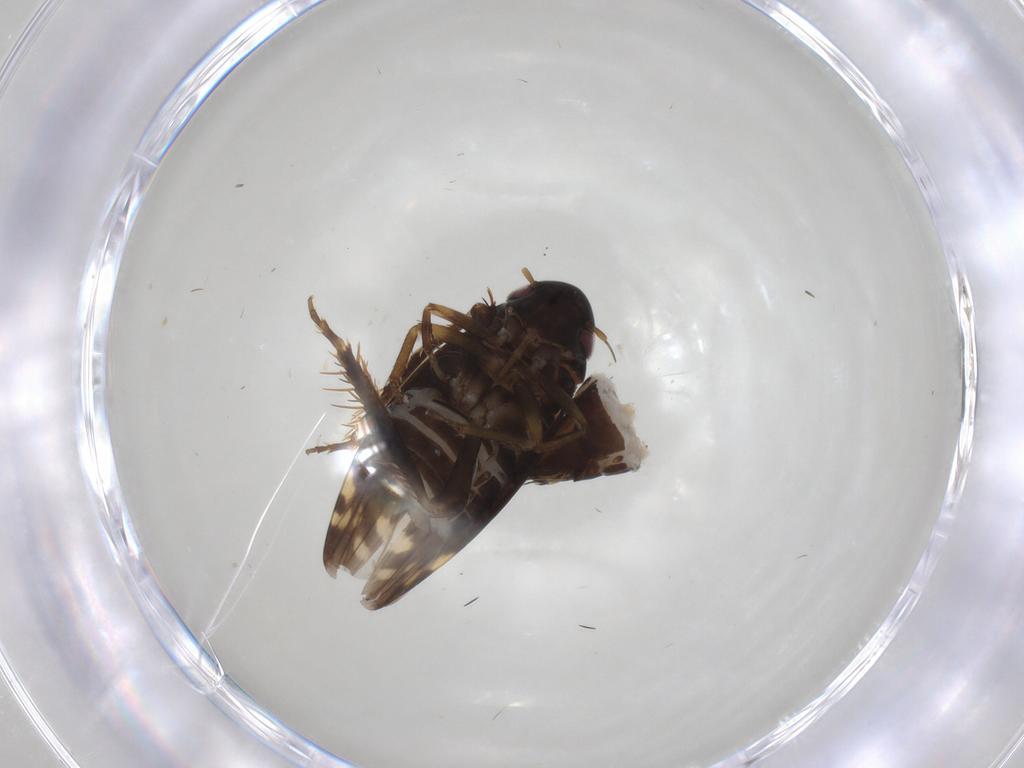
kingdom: Animalia
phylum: Arthropoda
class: Insecta
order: Hemiptera
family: Cicadellidae
